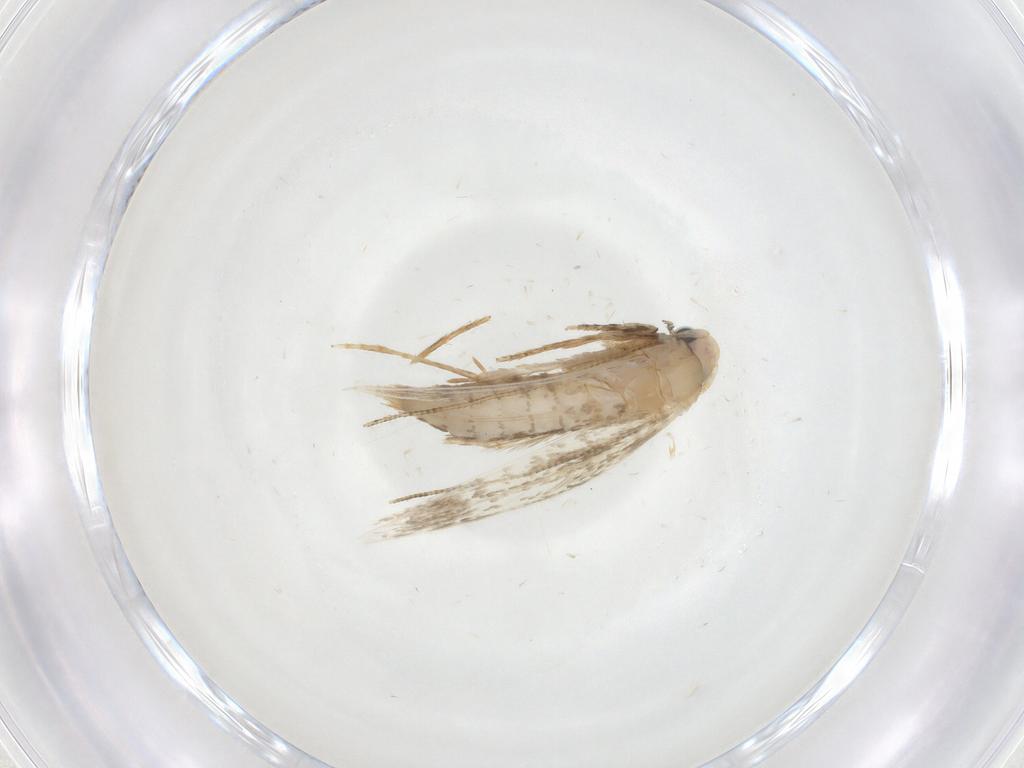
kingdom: Animalia
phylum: Arthropoda
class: Insecta
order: Lepidoptera
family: Tineidae
